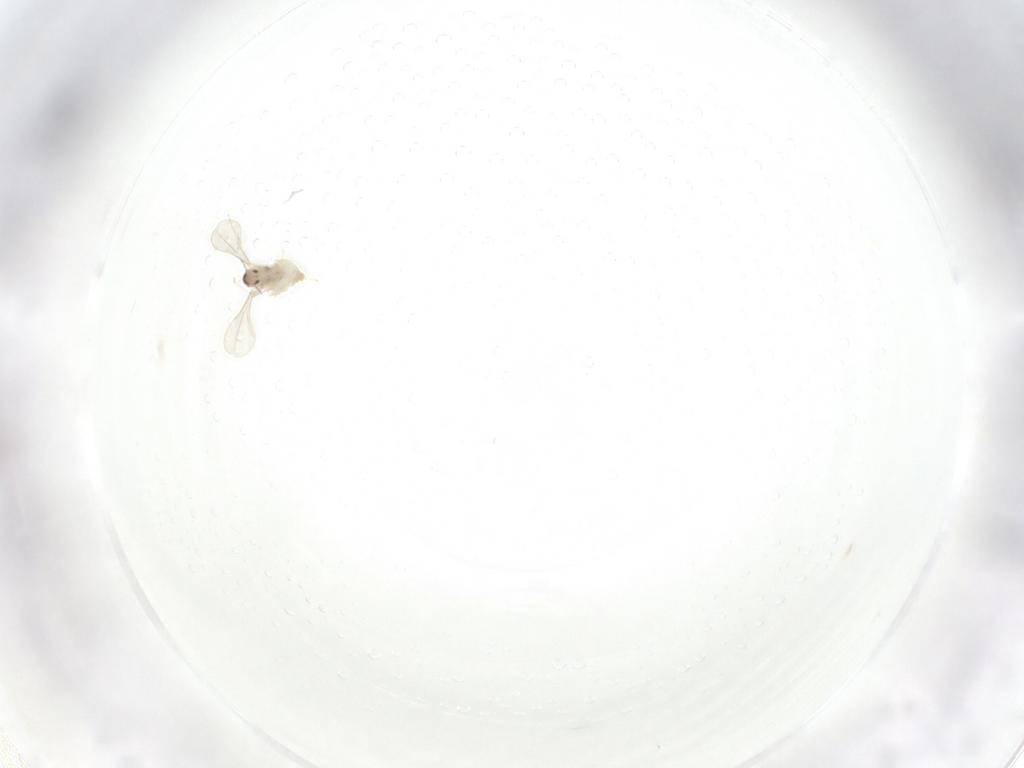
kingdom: Animalia
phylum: Arthropoda
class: Insecta
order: Diptera
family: Cecidomyiidae
